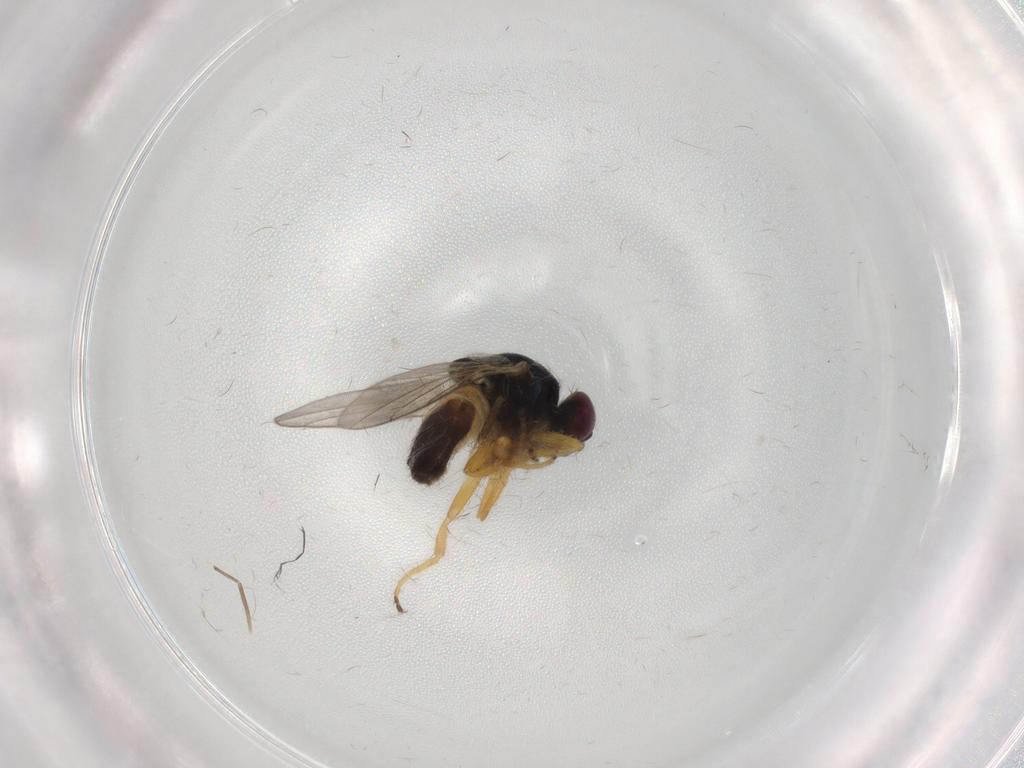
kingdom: Animalia
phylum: Arthropoda
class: Insecta
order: Diptera
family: Chloropidae
